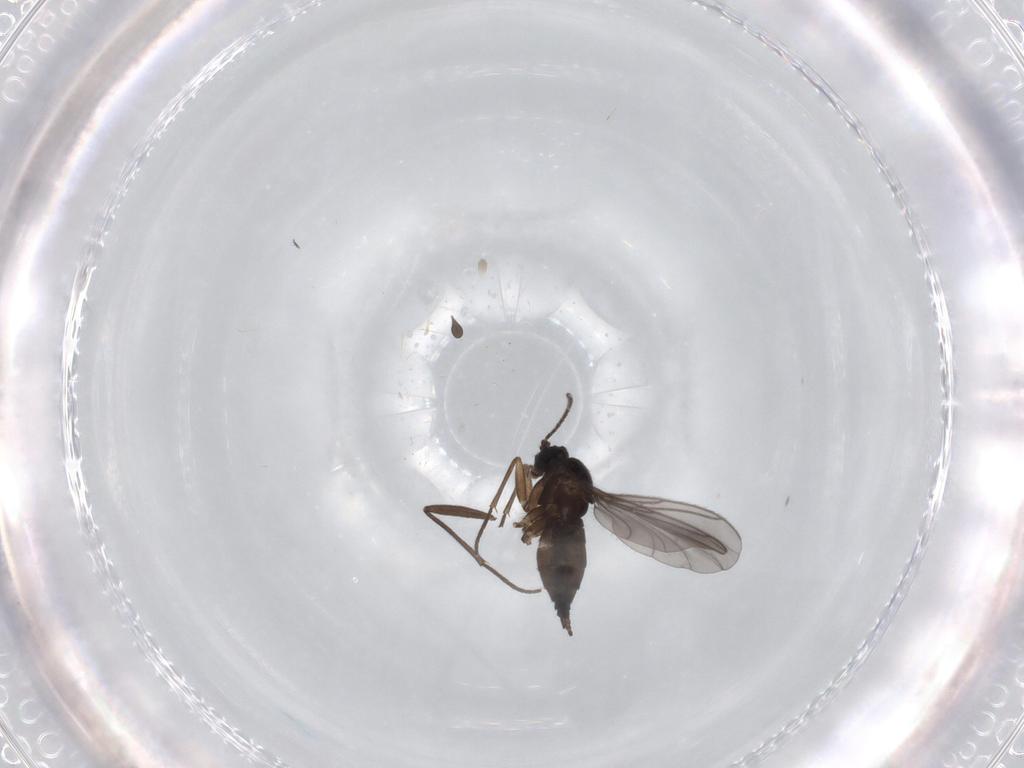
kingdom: Animalia
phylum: Arthropoda
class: Insecta
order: Diptera
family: Sciaridae
